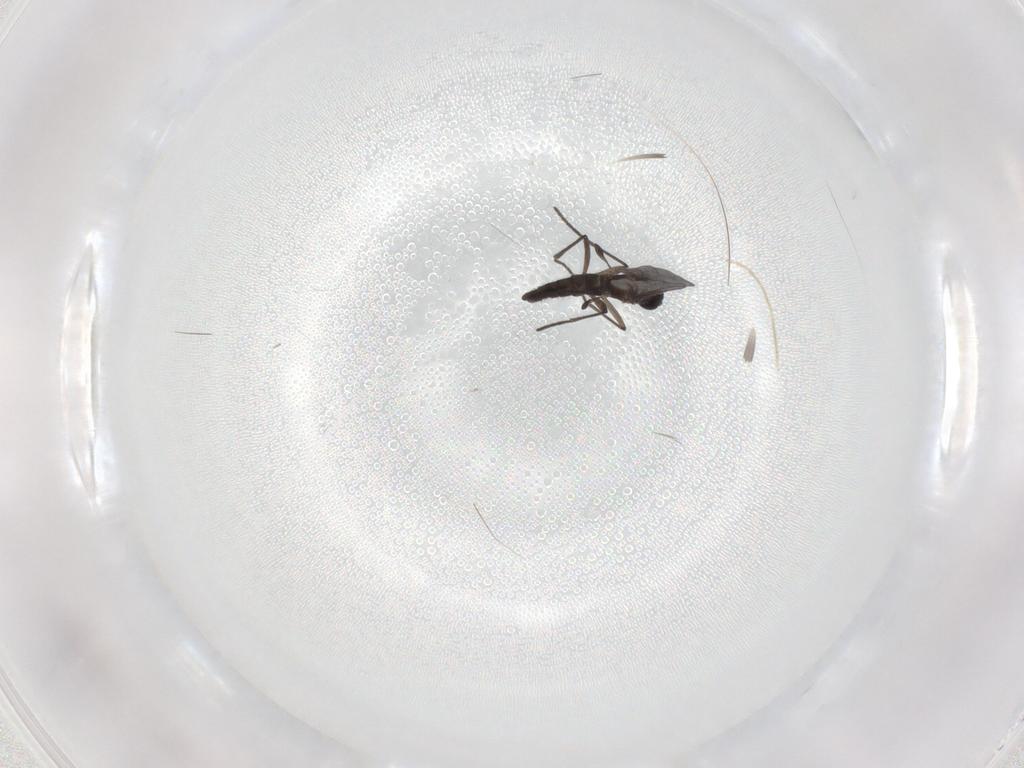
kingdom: Animalia
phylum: Arthropoda
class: Insecta
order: Diptera
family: Chironomidae
